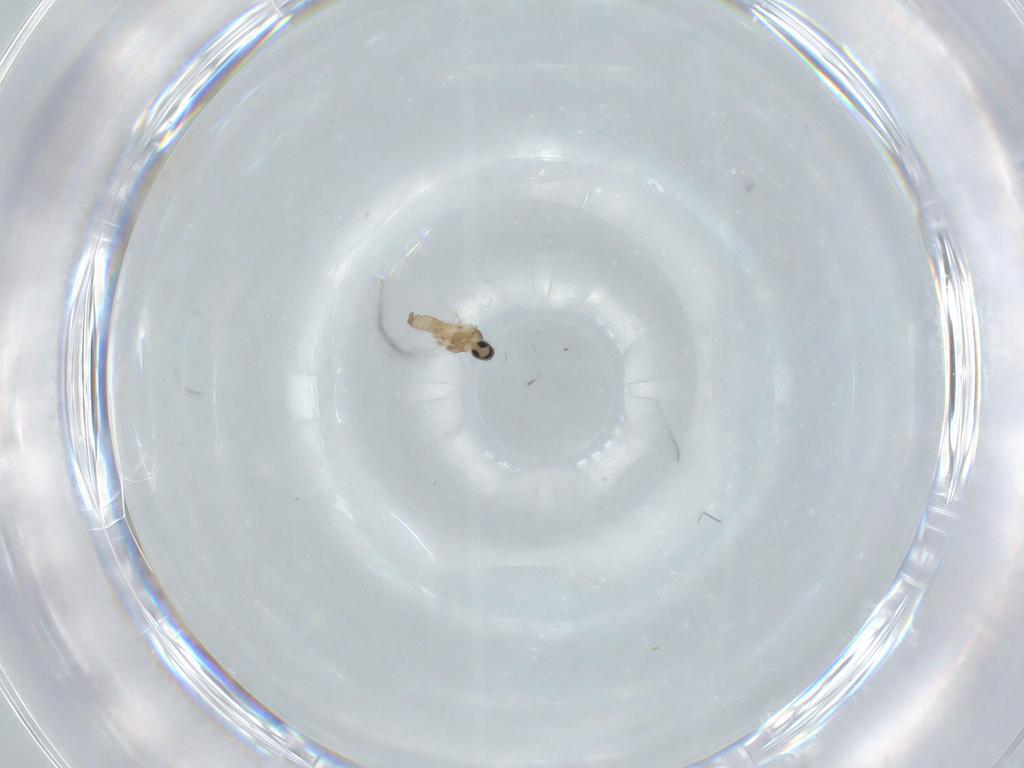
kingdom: Animalia
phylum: Arthropoda
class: Insecta
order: Diptera
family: Cecidomyiidae
